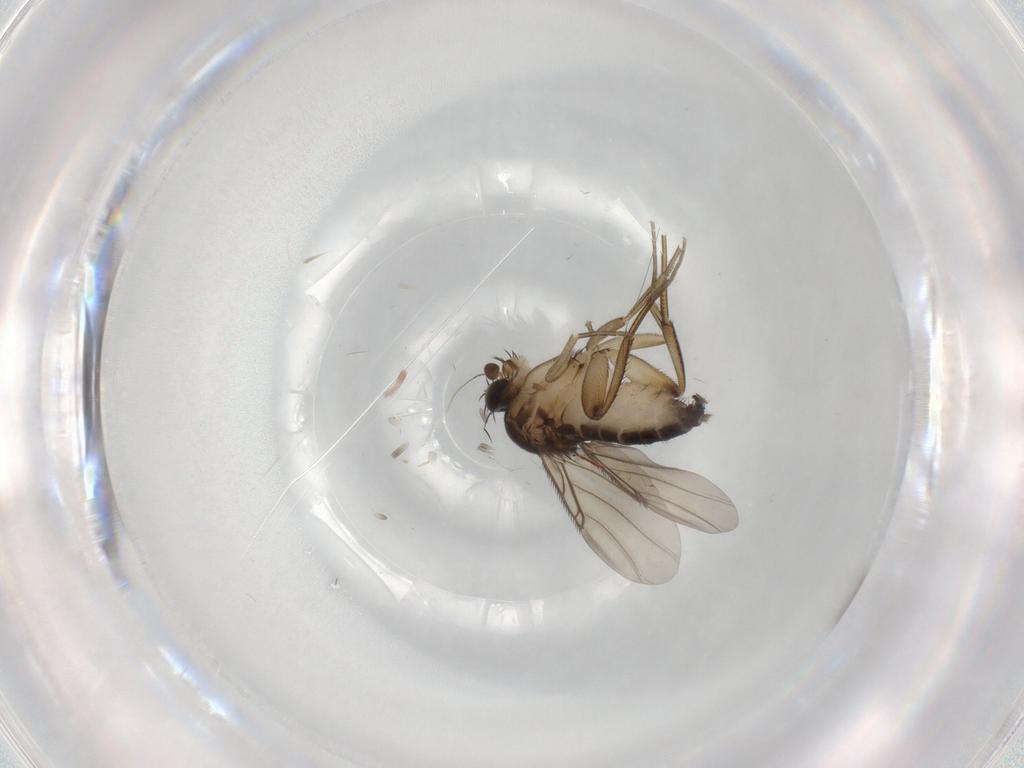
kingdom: Animalia
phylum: Arthropoda
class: Insecta
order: Diptera
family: Phoridae
